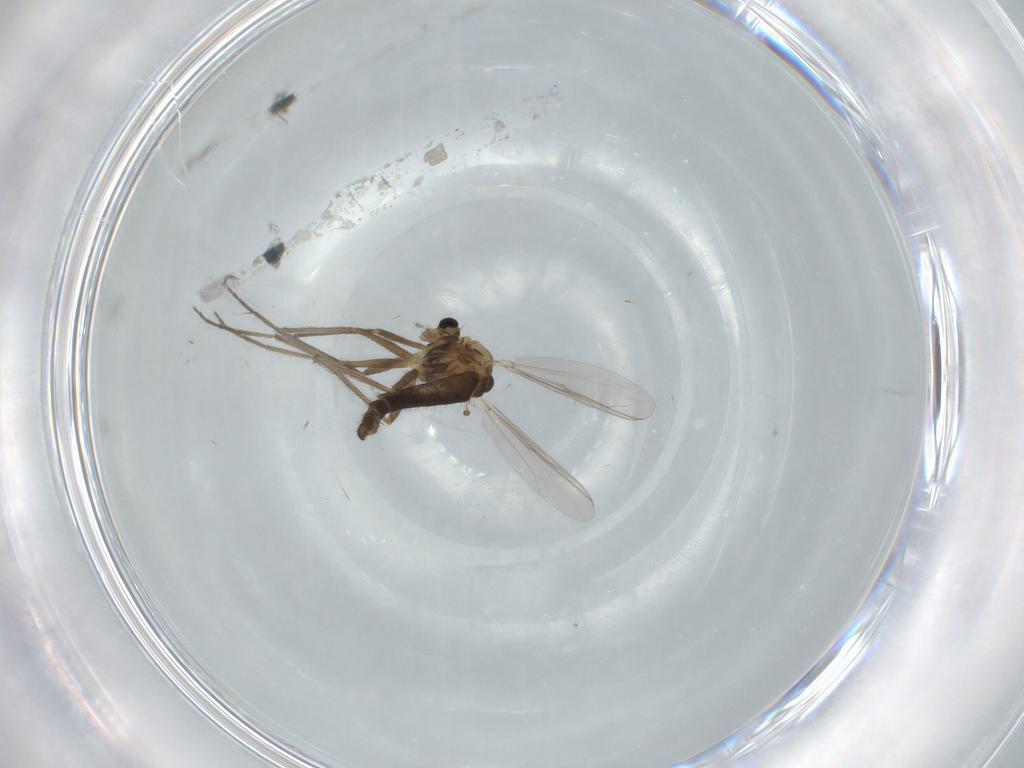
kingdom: Animalia
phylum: Arthropoda
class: Insecta
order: Diptera
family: Chironomidae
